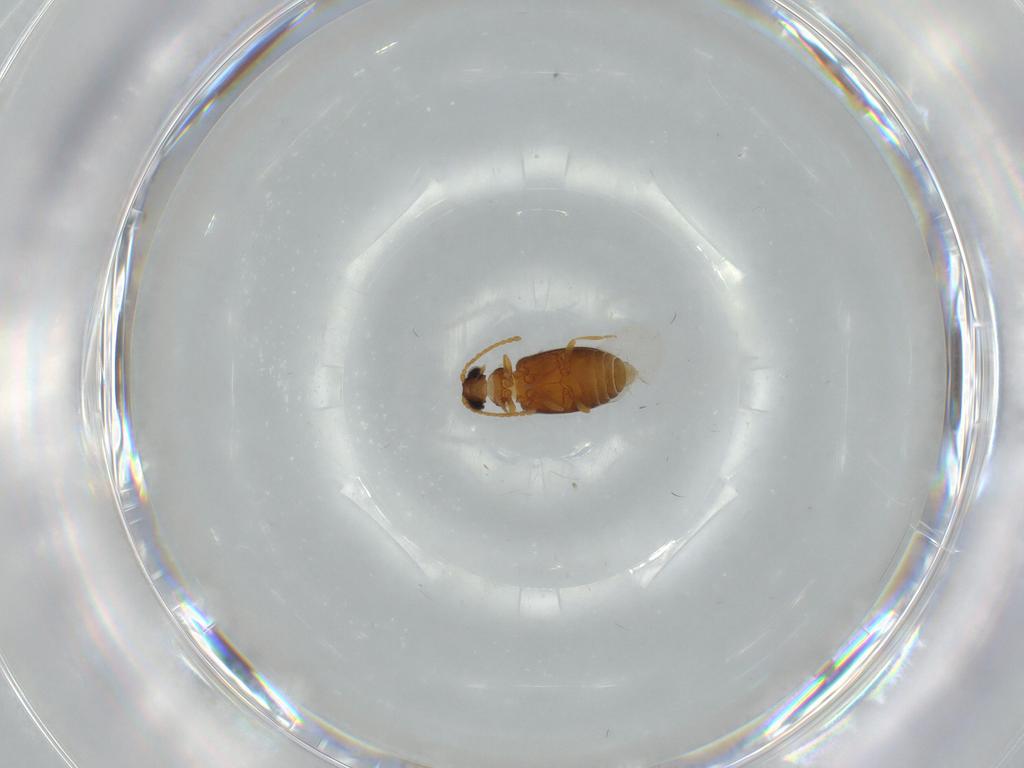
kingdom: Animalia
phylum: Arthropoda
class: Insecta
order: Coleoptera
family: Aderidae
